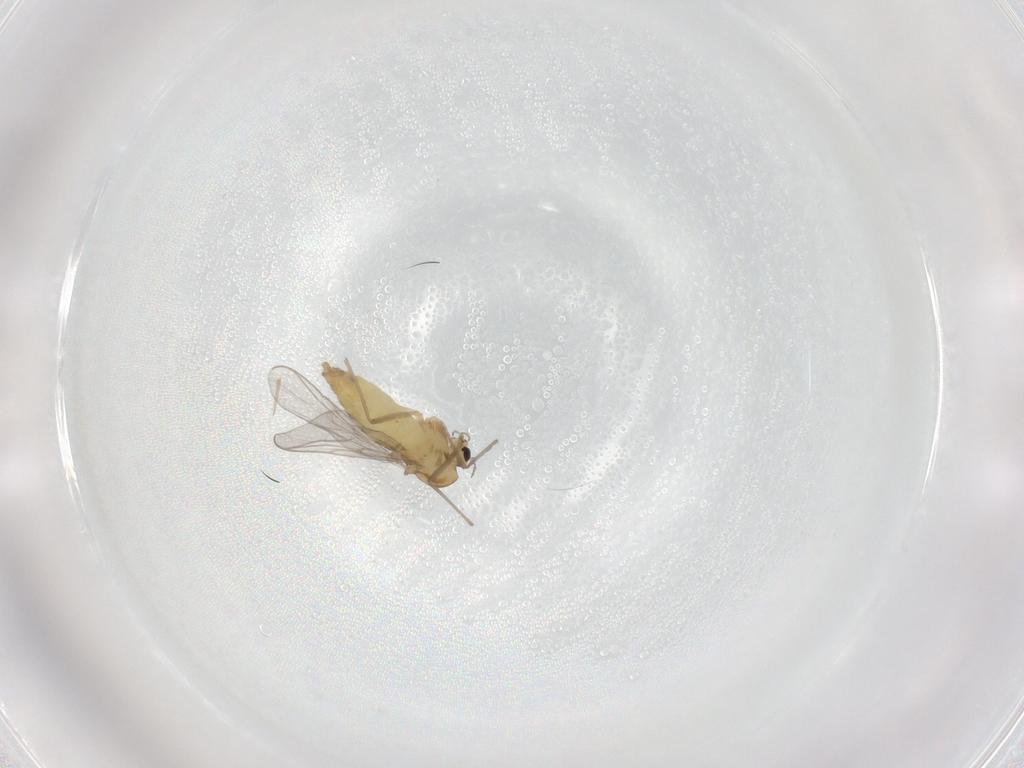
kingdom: Animalia
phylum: Arthropoda
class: Insecta
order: Diptera
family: Chironomidae
